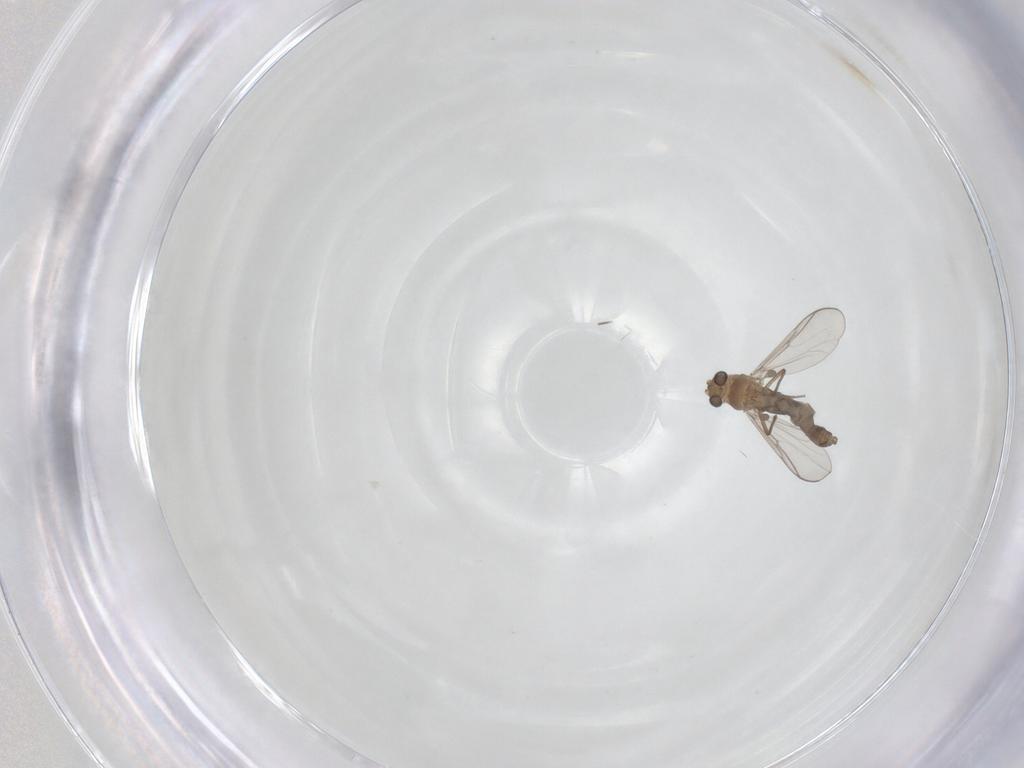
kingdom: Animalia
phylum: Arthropoda
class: Insecta
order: Diptera
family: Chironomidae
